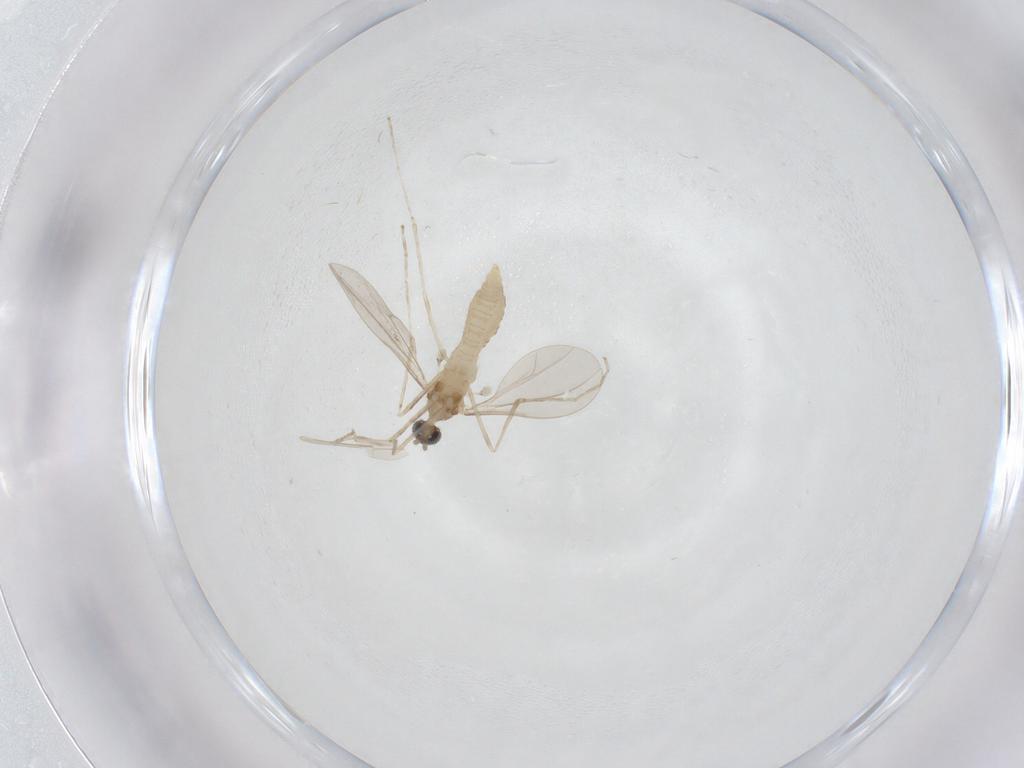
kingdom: Animalia
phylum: Arthropoda
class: Insecta
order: Diptera
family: Cecidomyiidae
